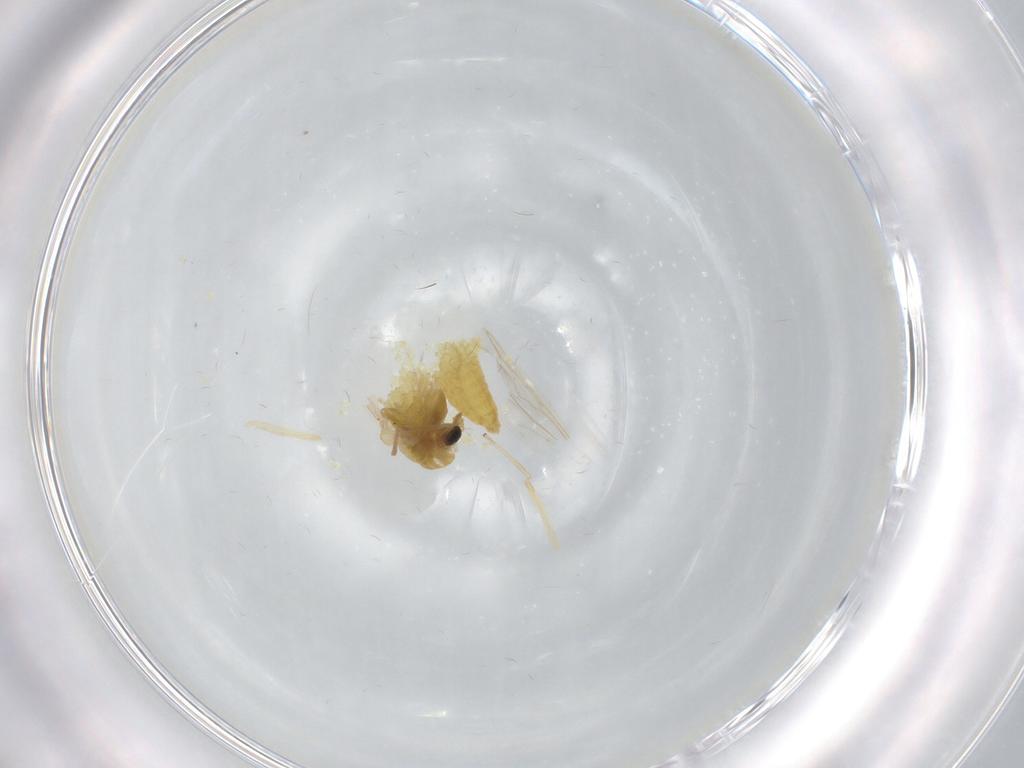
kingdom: Animalia
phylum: Arthropoda
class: Insecta
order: Diptera
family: Chironomidae
